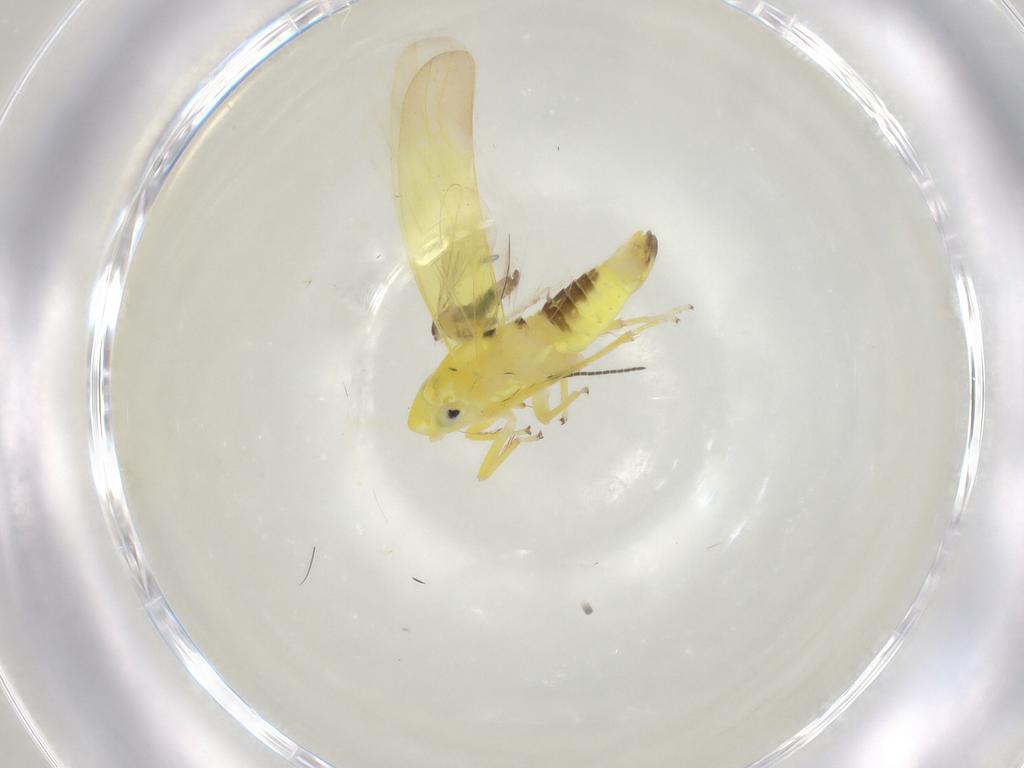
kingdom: Animalia
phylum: Arthropoda
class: Insecta
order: Hemiptera
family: Cicadellidae
